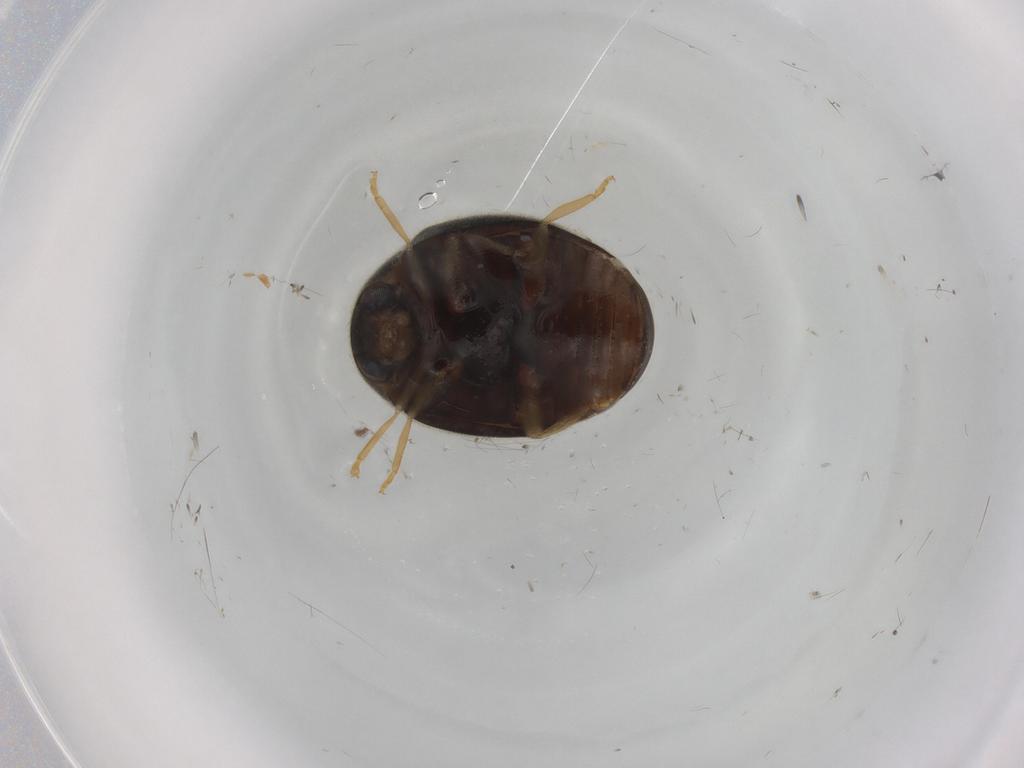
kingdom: Animalia
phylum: Arthropoda
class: Insecta
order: Coleoptera
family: Coccinellidae
